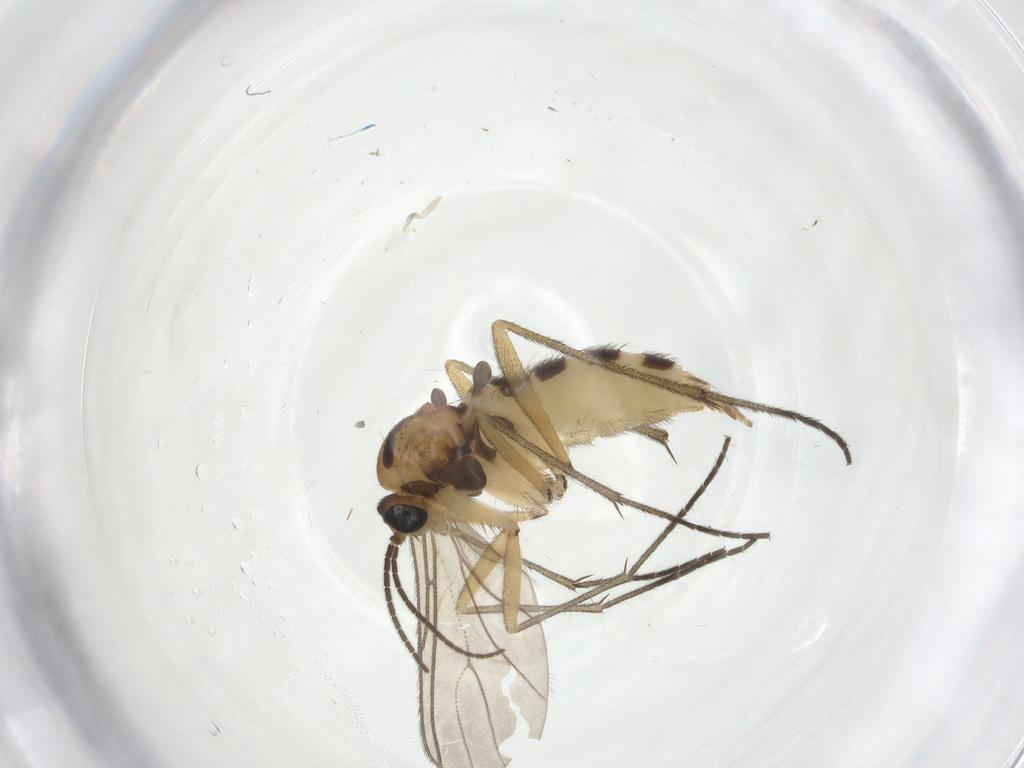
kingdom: Animalia
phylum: Arthropoda
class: Insecta
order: Diptera
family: Sciaridae
